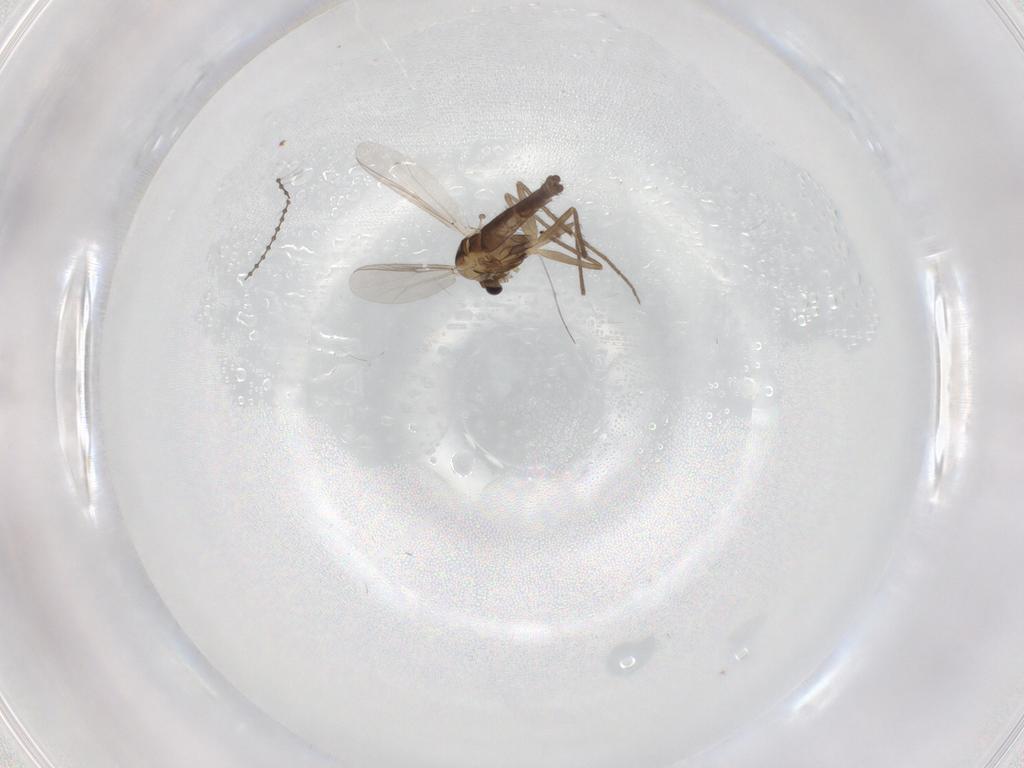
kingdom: Animalia
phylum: Arthropoda
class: Insecta
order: Diptera
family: Chironomidae
